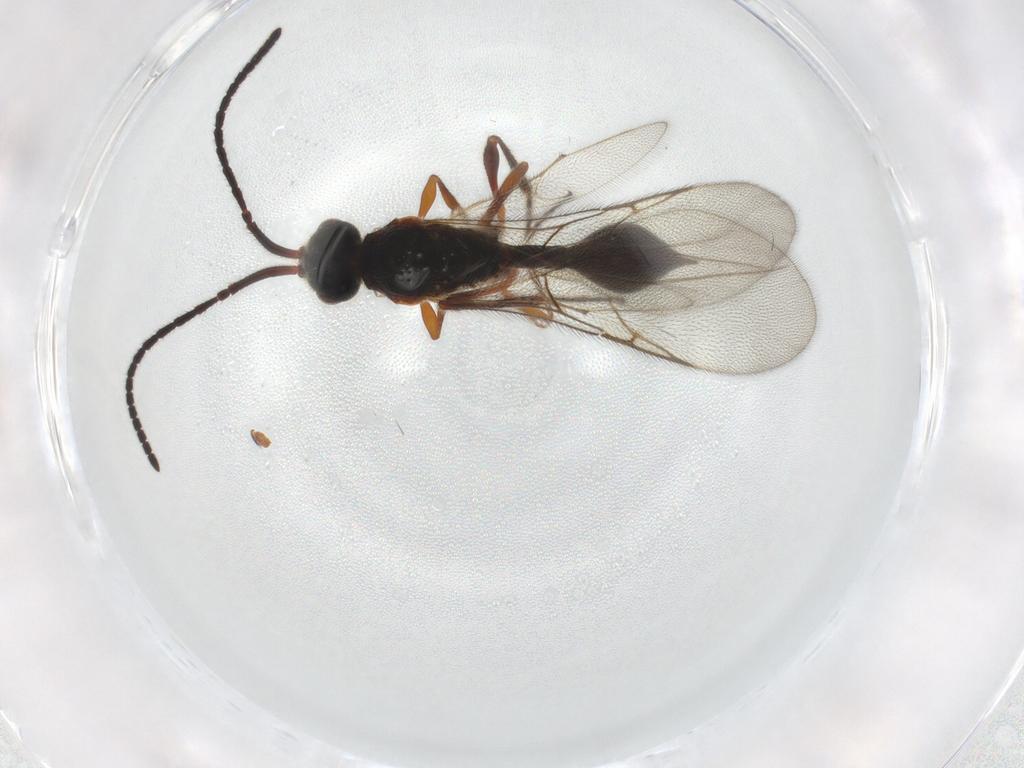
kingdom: Animalia
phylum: Arthropoda
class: Insecta
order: Hymenoptera
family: Diapriidae
